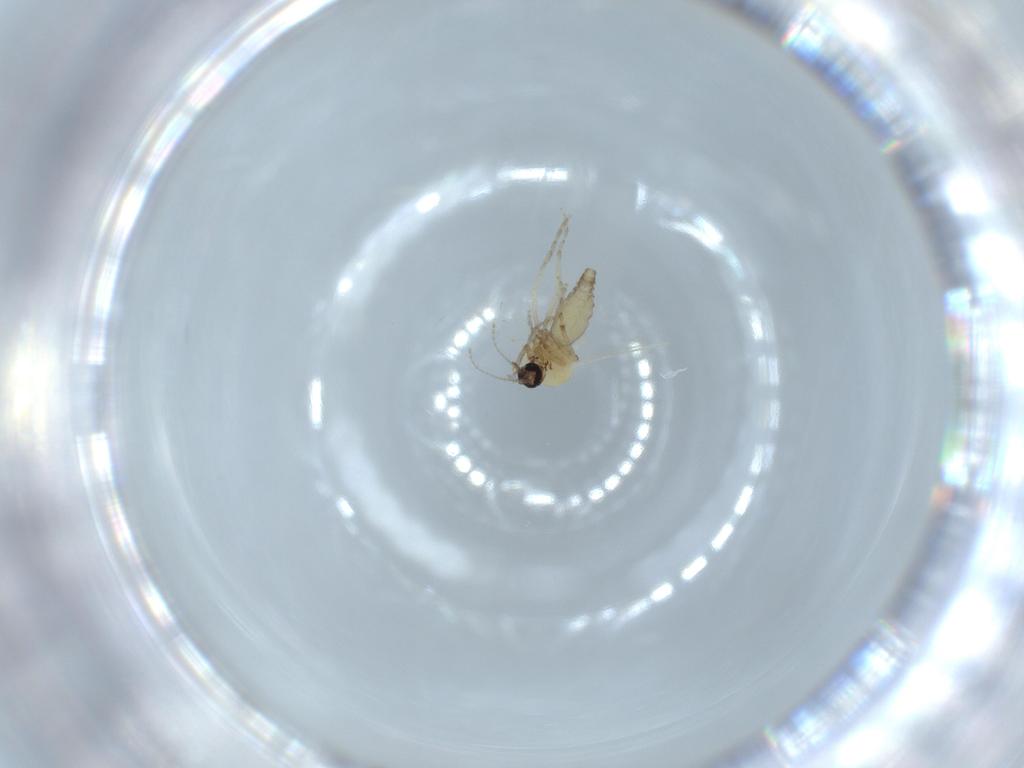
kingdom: Animalia
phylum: Arthropoda
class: Insecta
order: Diptera
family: Ceratopogonidae
